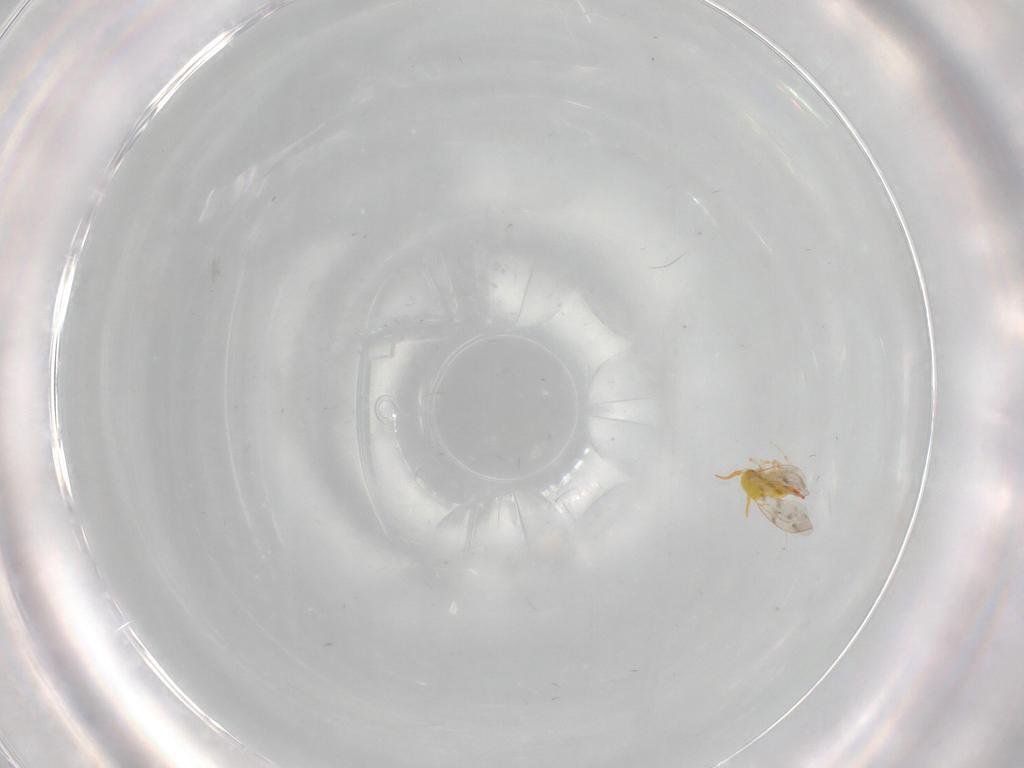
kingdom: Animalia
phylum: Arthropoda
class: Insecta
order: Hemiptera
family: Aleyrodidae
